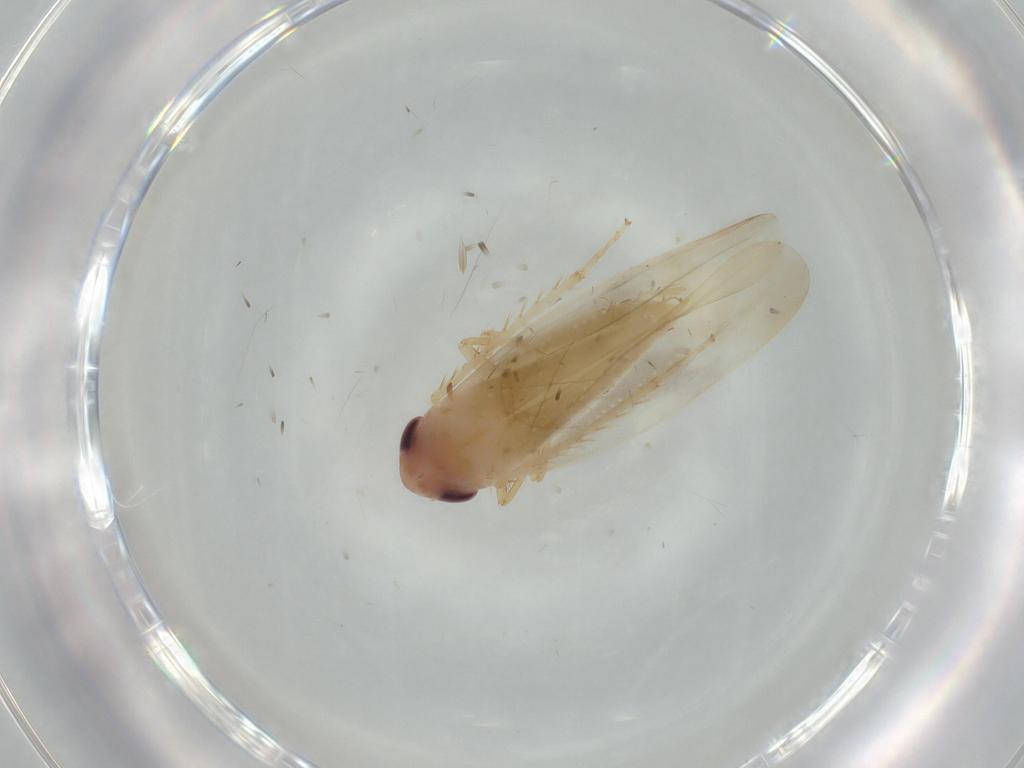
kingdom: Animalia
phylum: Arthropoda
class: Insecta
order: Hemiptera
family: Cicadellidae
